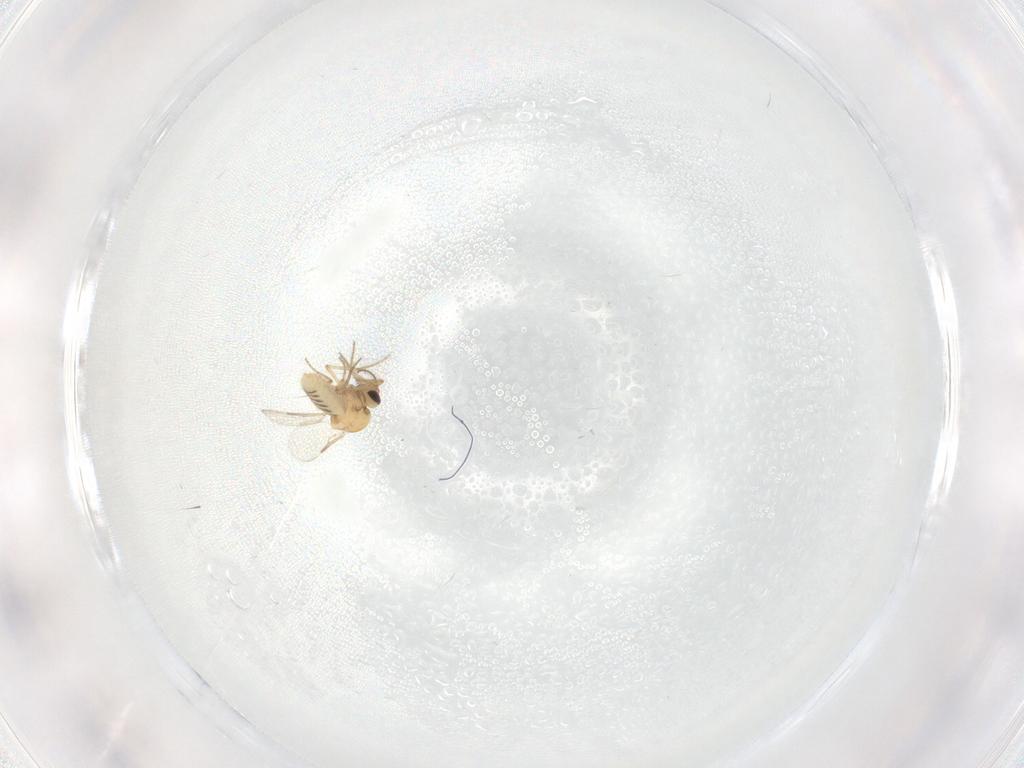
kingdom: Animalia
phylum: Arthropoda
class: Insecta
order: Diptera
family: Ceratopogonidae
